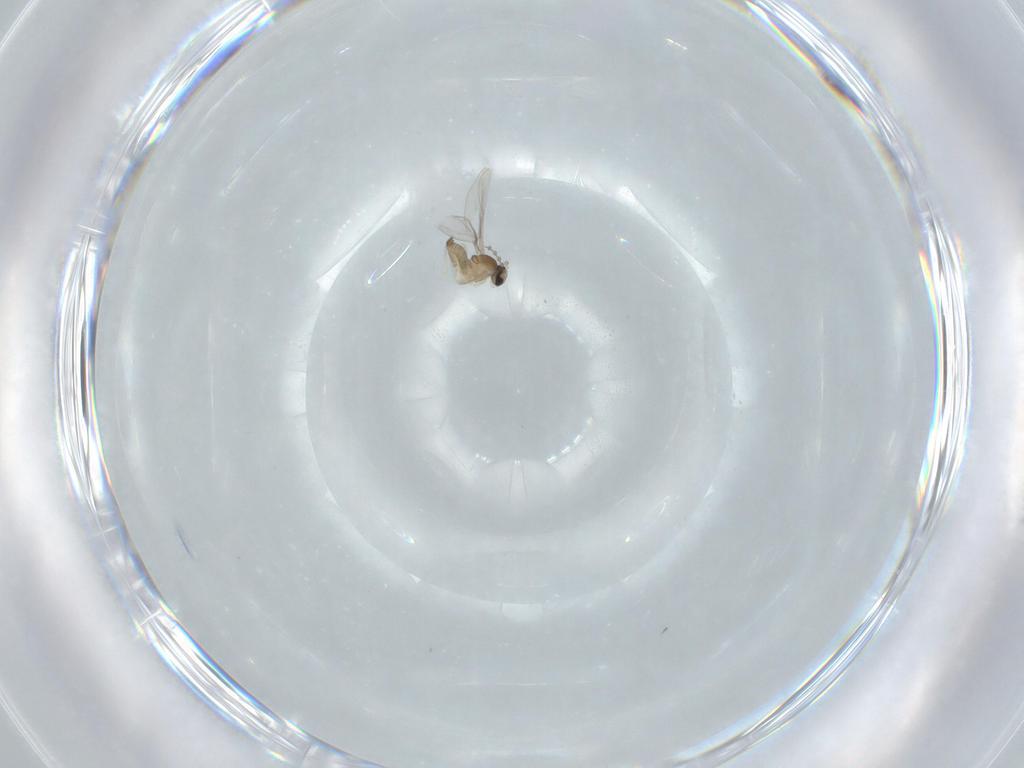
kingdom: Animalia
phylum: Arthropoda
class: Insecta
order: Diptera
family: Cecidomyiidae
